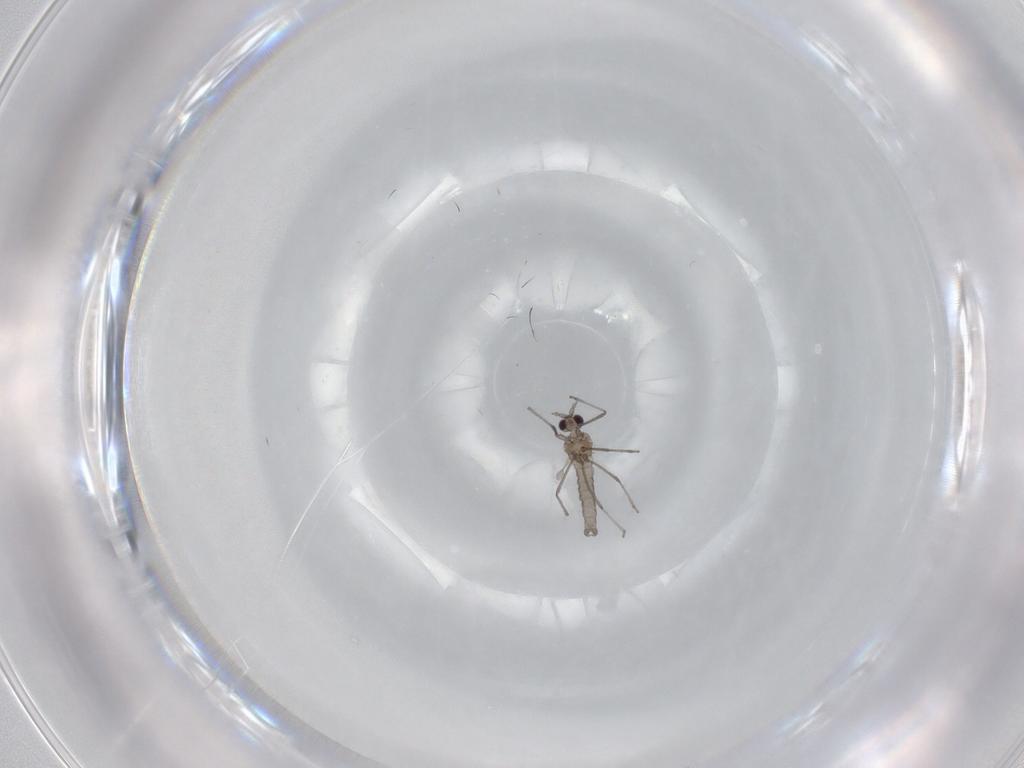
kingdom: Animalia
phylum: Arthropoda
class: Insecta
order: Diptera
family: Cecidomyiidae
